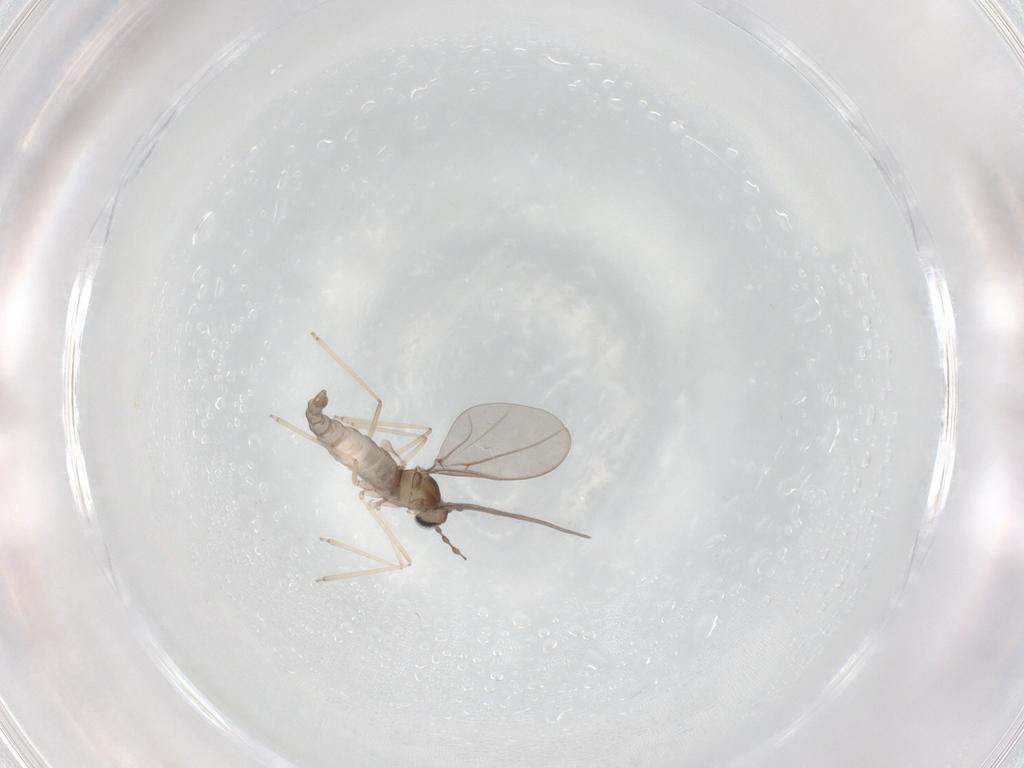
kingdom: Animalia
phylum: Arthropoda
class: Insecta
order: Diptera
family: Cecidomyiidae
